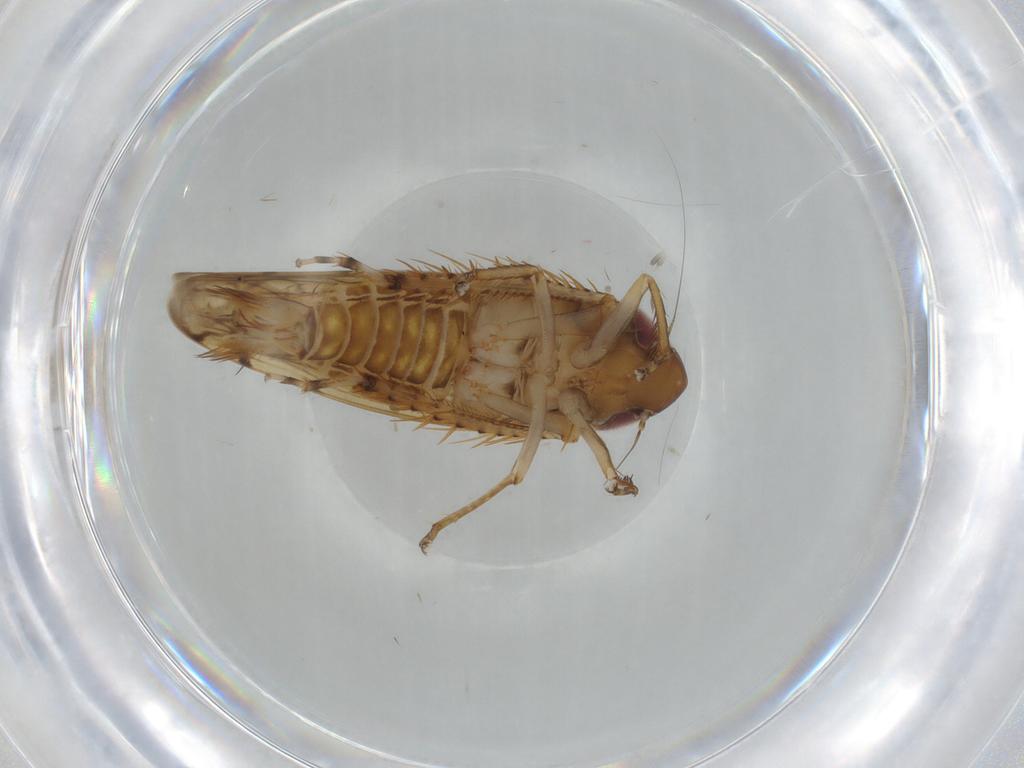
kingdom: Animalia
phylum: Arthropoda
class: Insecta
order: Hemiptera
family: Cicadellidae
